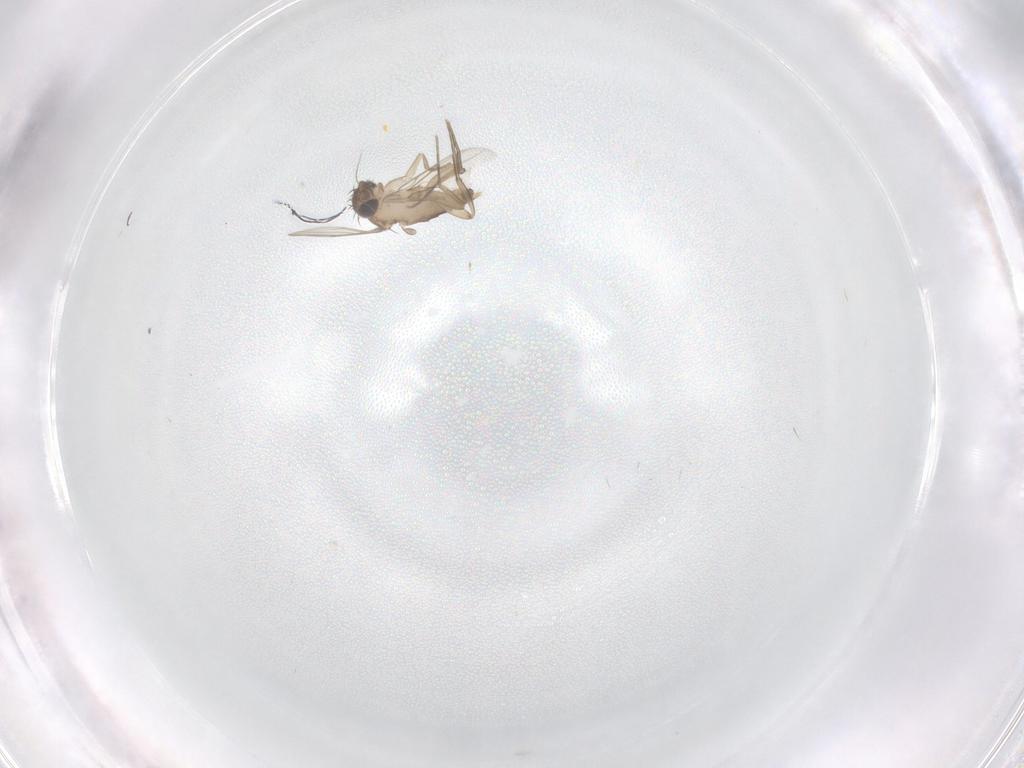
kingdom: Animalia
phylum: Arthropoda
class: Insecta
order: Diptera
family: Phoridae
